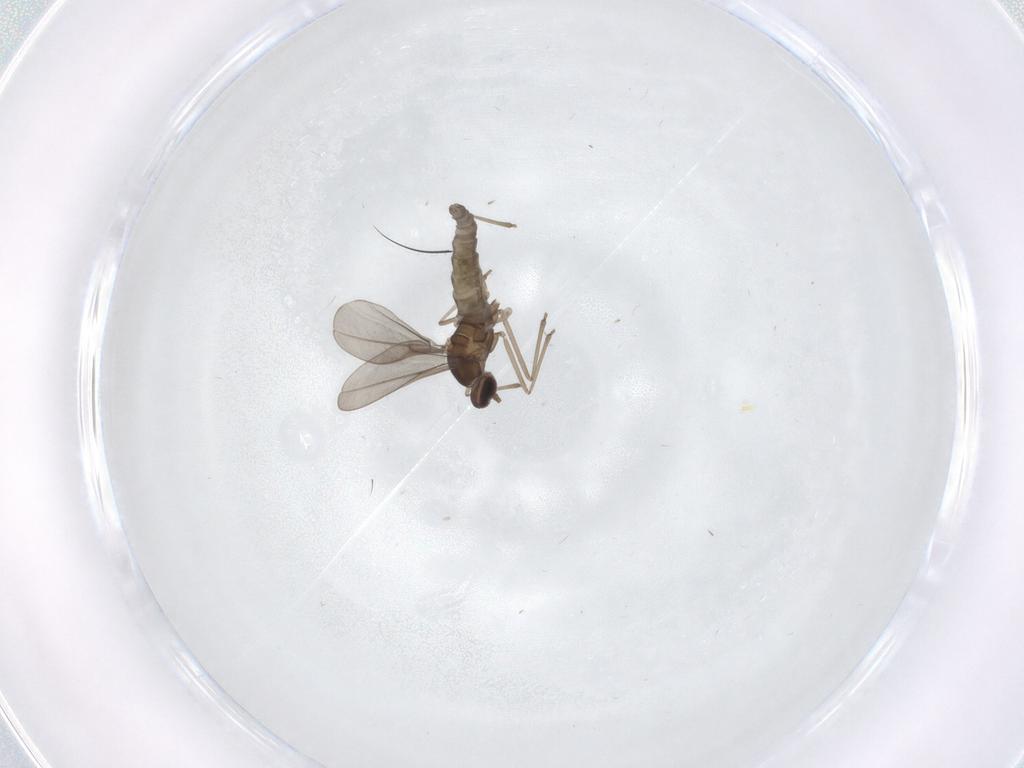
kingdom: Animalia
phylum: Arthropoda
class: Insecta
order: Diptera
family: Cecidomyiidae
